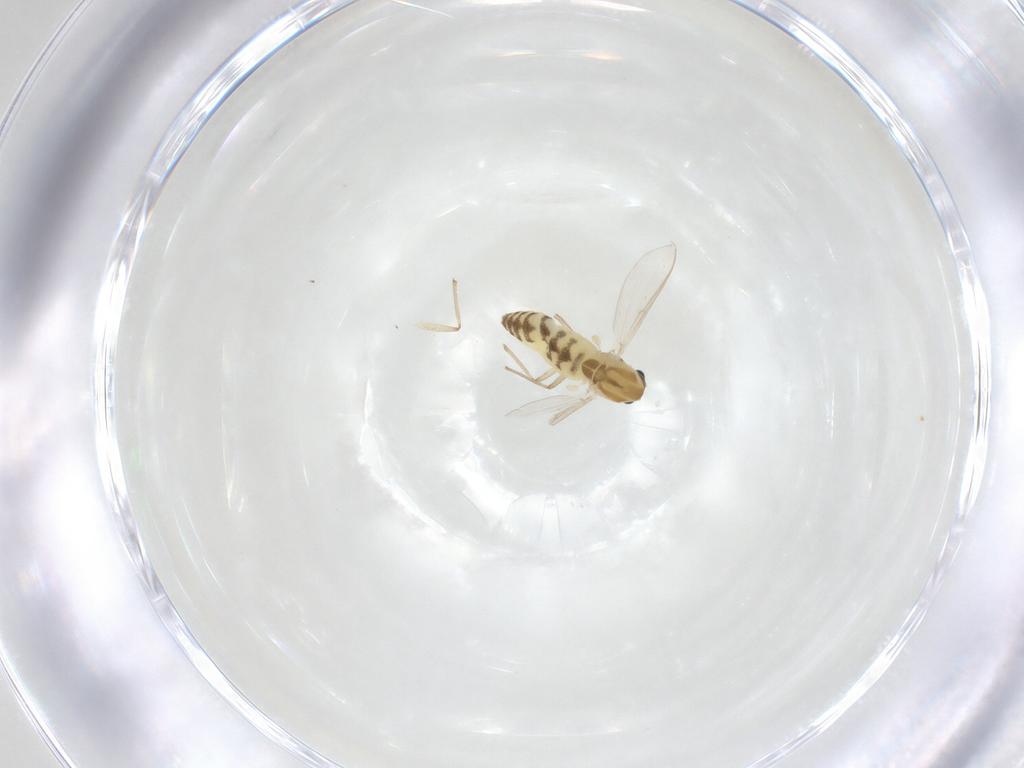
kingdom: Animalia
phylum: Arthropoda
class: Insecta
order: Diptera
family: Chironomidae
